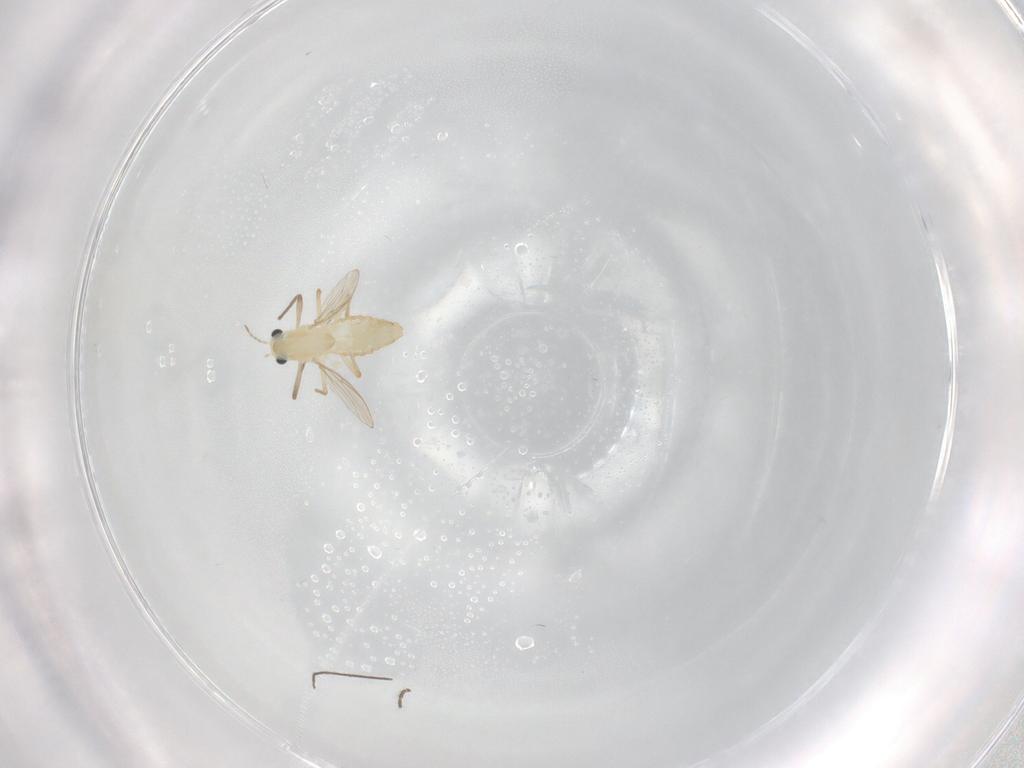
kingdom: Animalia
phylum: Arthropoda
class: Insecta
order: Diptera
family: Chironomidae
